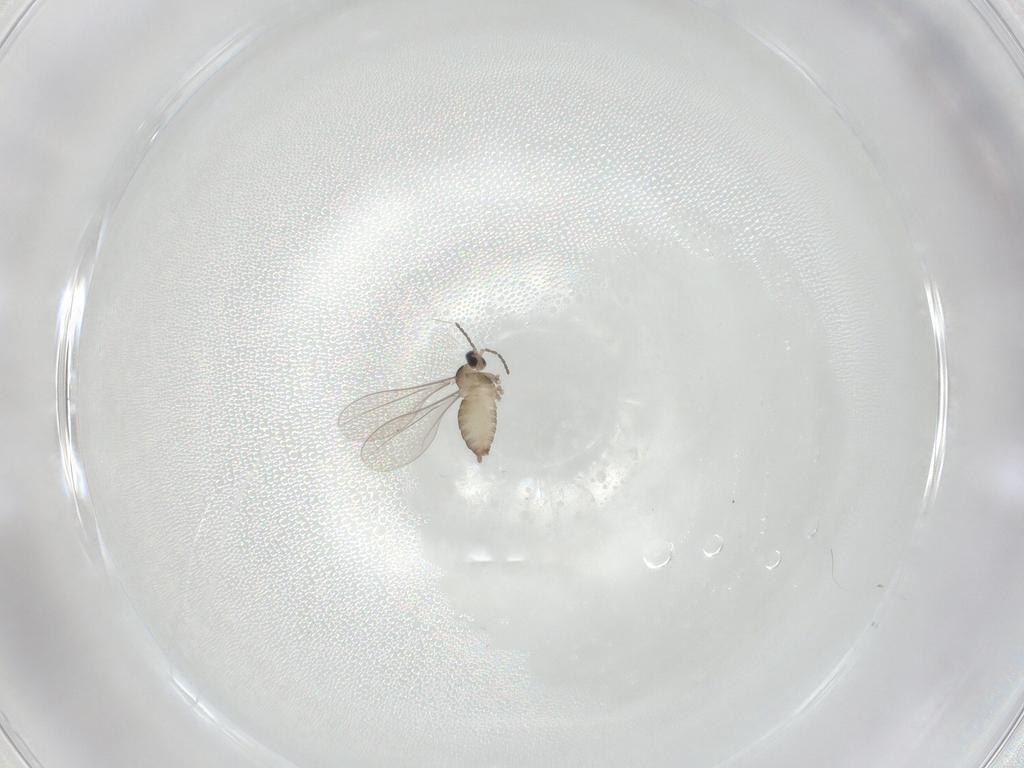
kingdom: Animalia
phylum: Arthropoda
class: Insecta
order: Diptera
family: Cecidomyiidae
